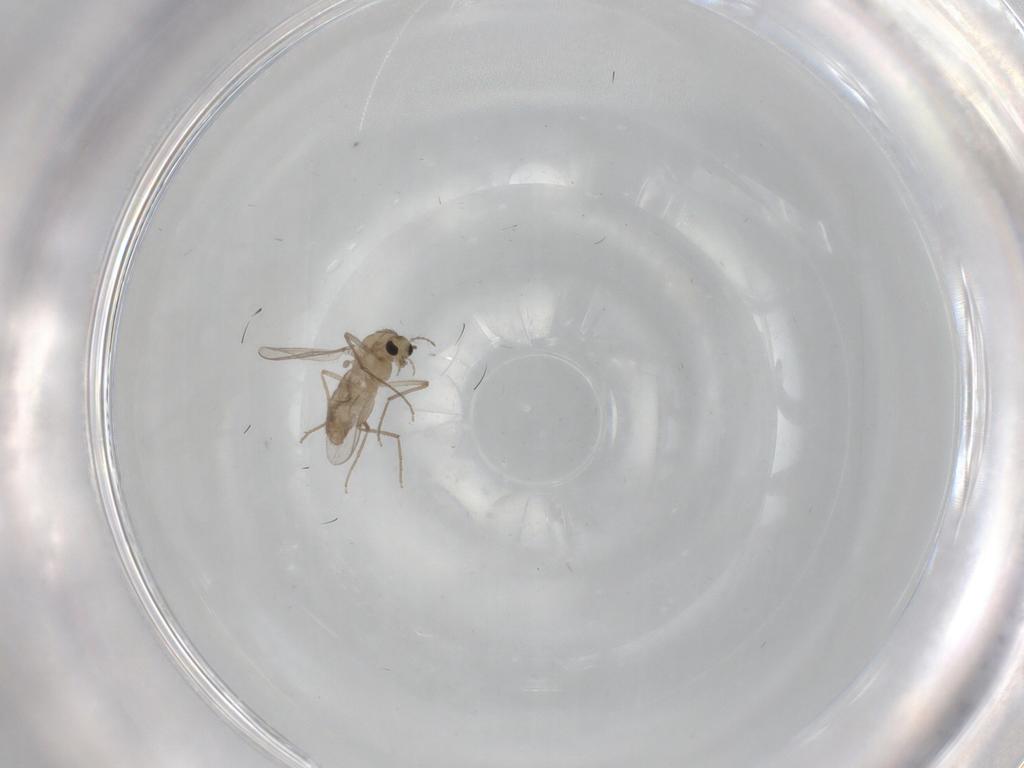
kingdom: Animalia
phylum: Arthropoda
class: Insecta
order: Diptera
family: Chironomidae
